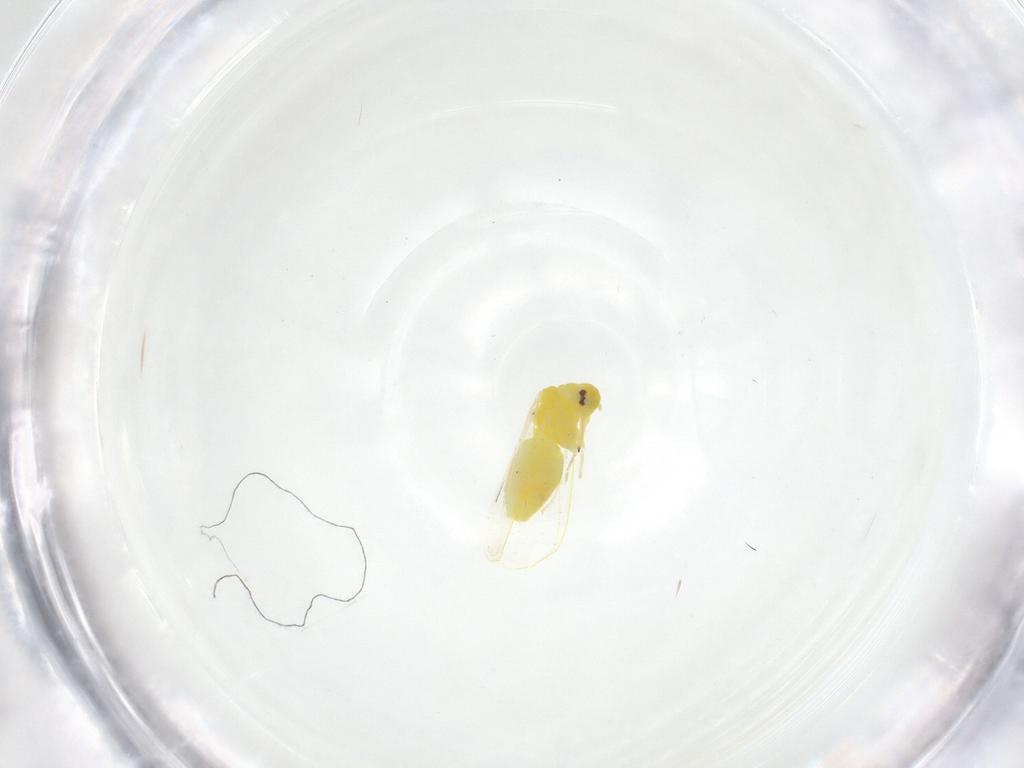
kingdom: Animalia
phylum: Arthropoda
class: Insecta
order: Hemiptera
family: Aleyrodidae
